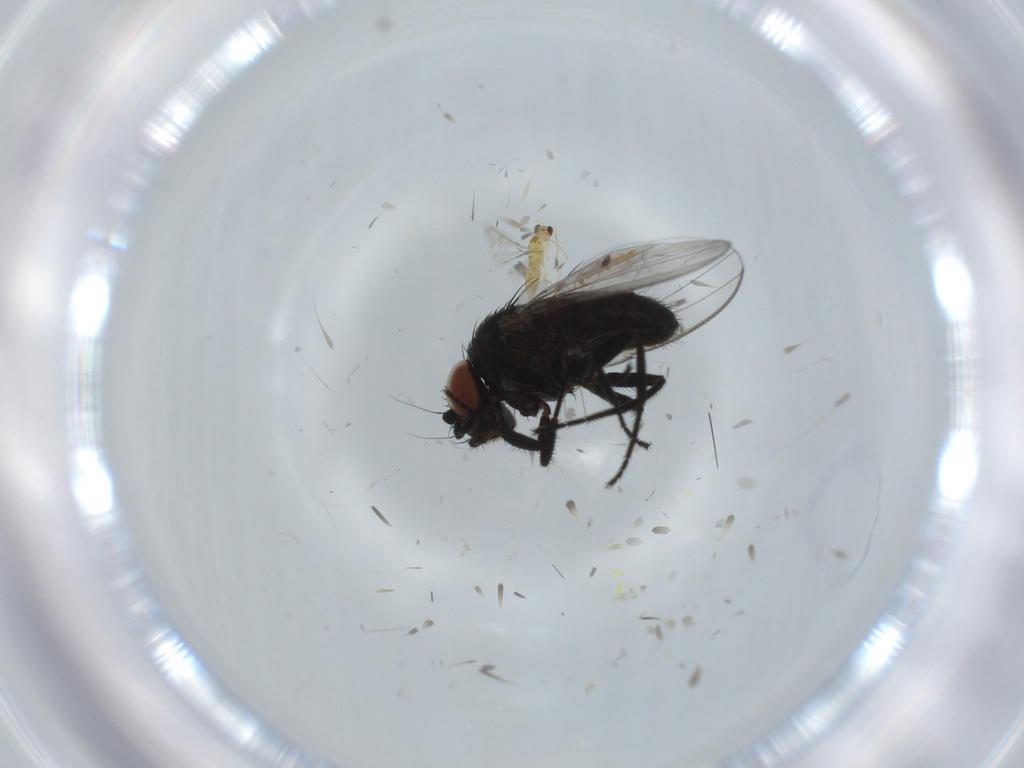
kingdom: Animalia
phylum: Arthropoda
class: Insecta
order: Diptera
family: Milichiidae
